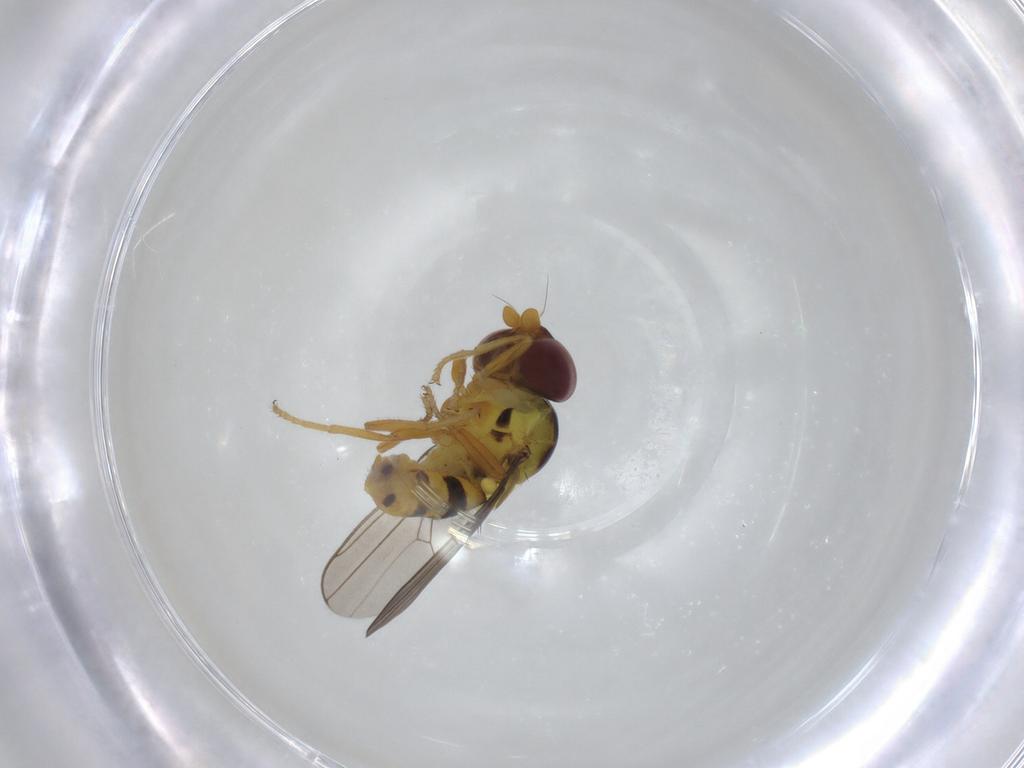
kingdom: Animalia
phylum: Arthropoda
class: Insecta
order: Diptera
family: Chloropidae
